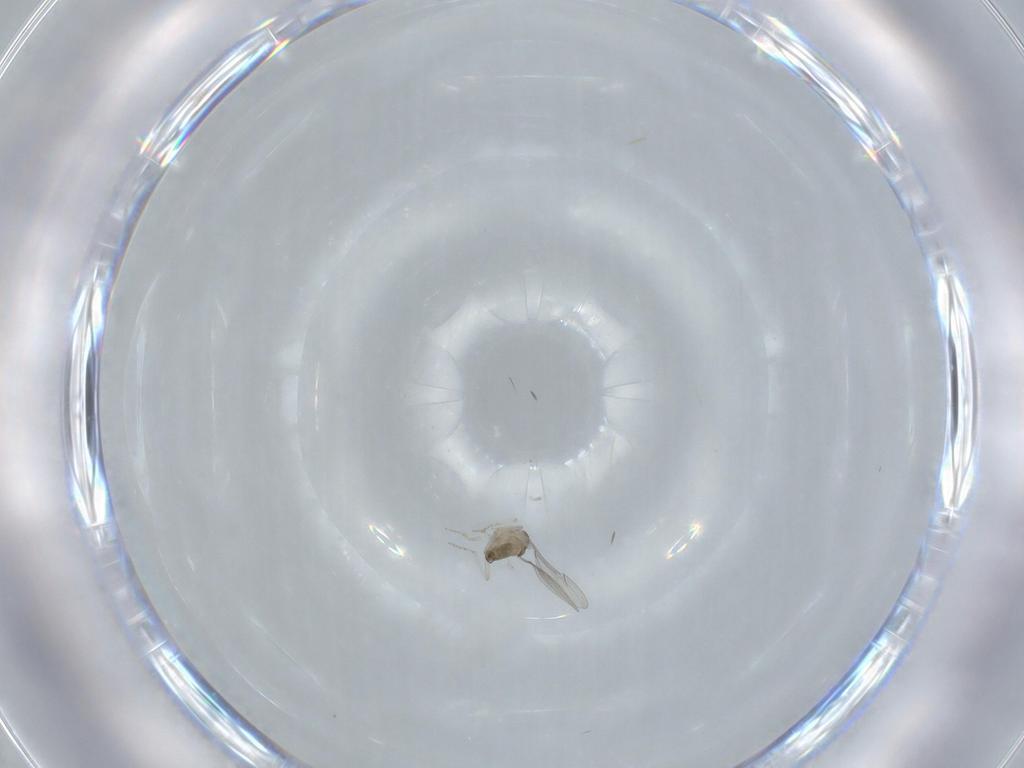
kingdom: Animalia
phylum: Arthropoda
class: Insecta
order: Diptera
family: Cecidomyiidae
